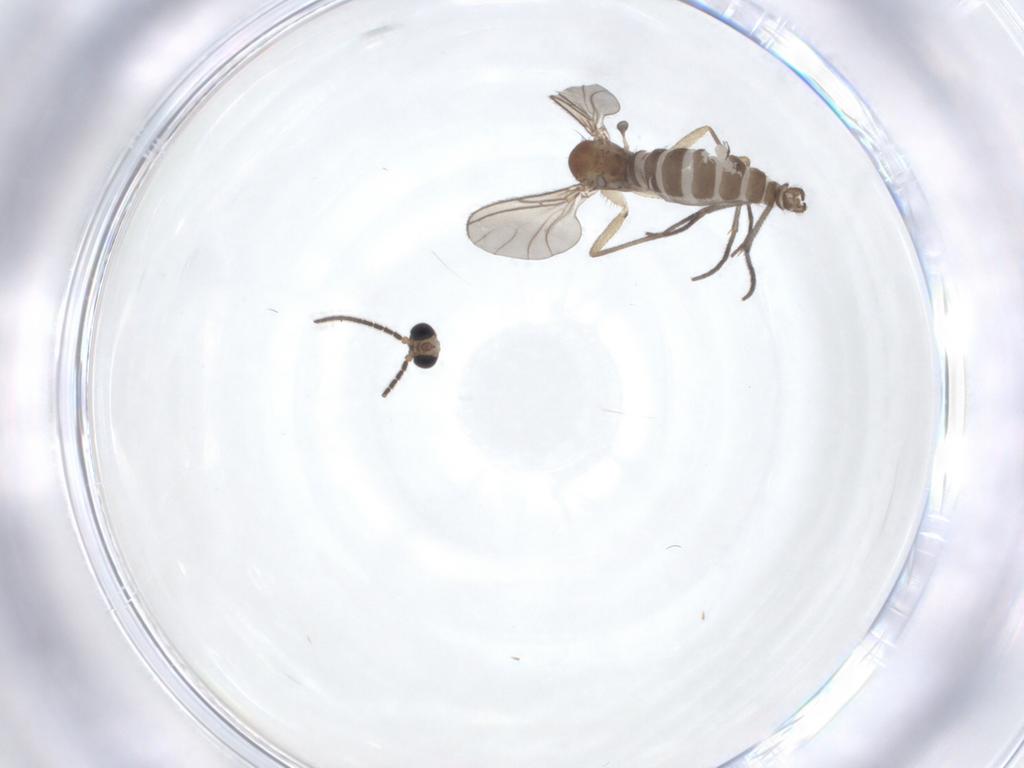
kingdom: Animalia
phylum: Arthropoda
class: Insecta
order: Diptera
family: Sciaridae
